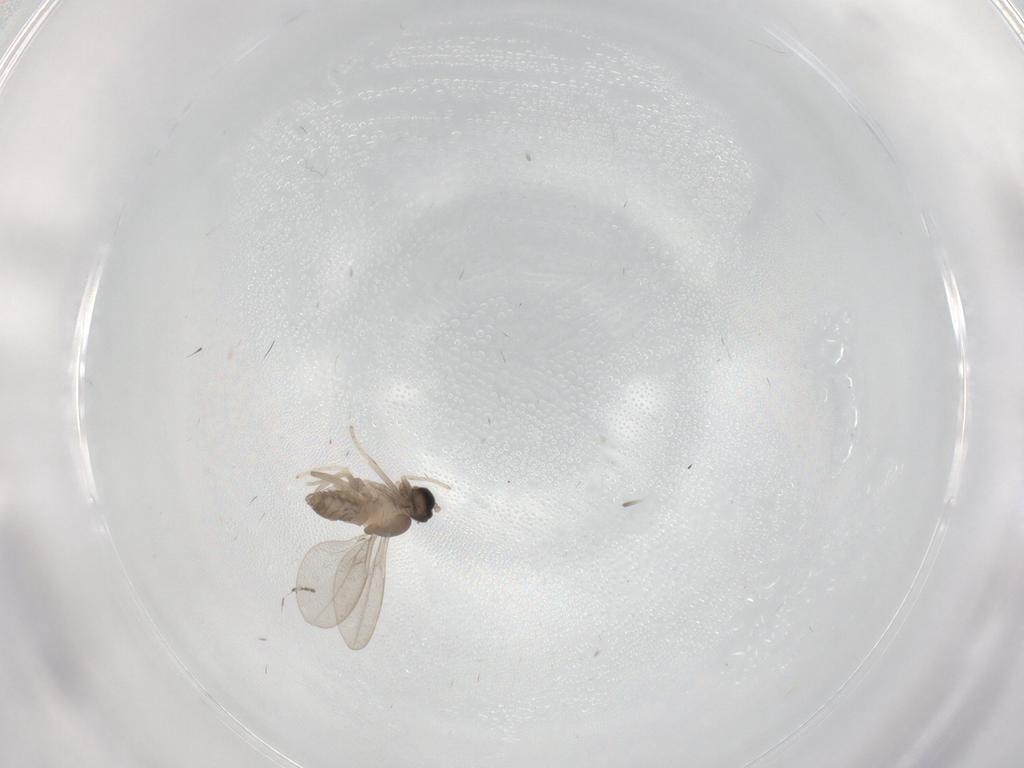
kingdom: Animalia
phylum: Arthropoda
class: Insecta
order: Diptera
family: Cecidomyiidae
